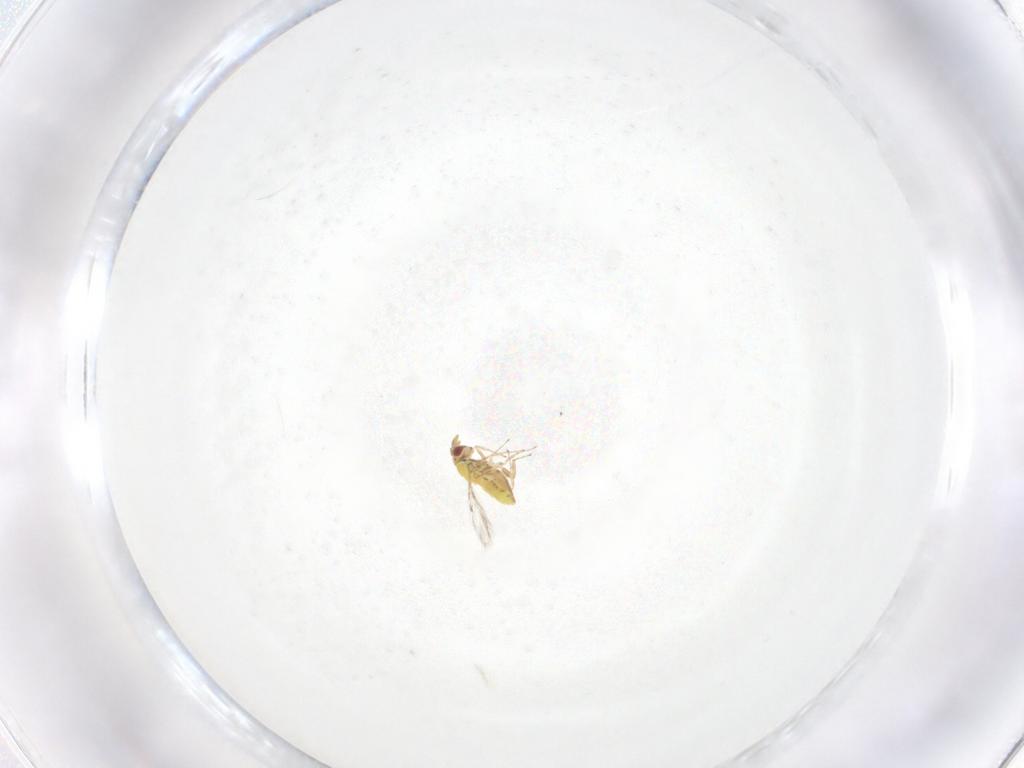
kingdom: Animalia
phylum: Arthropoda
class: Insecta
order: Hymenoptera
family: Trichogrammatidae
